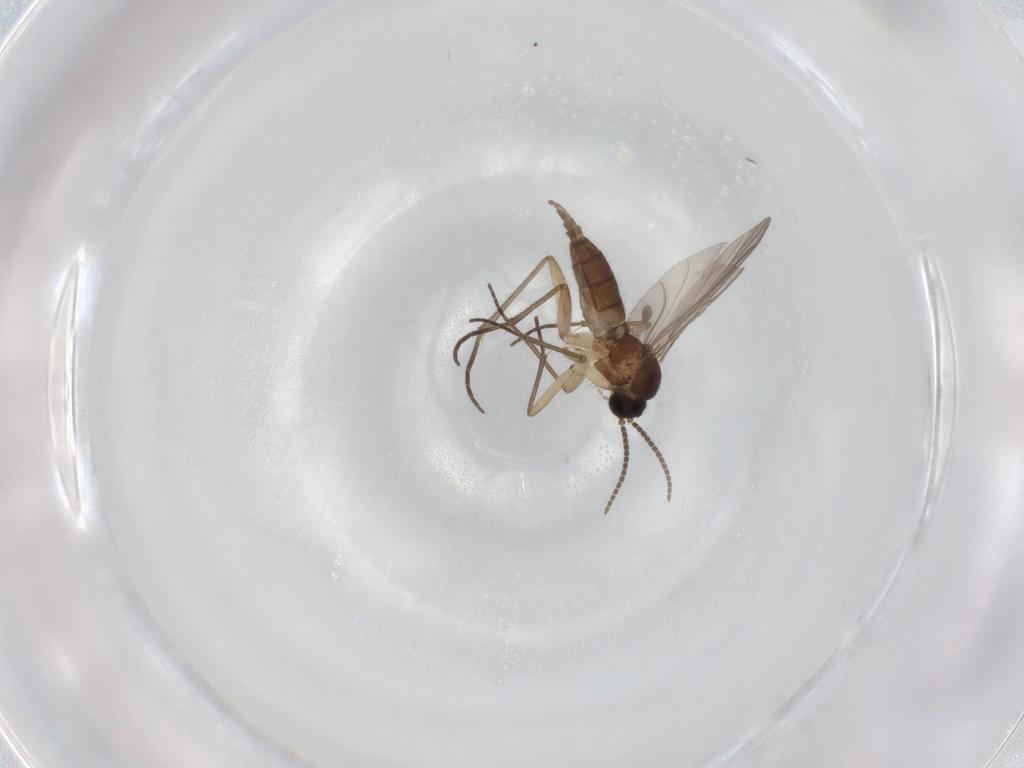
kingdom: Animalia
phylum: Arthropoda
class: Insecta
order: Diptera
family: Sciaridae
